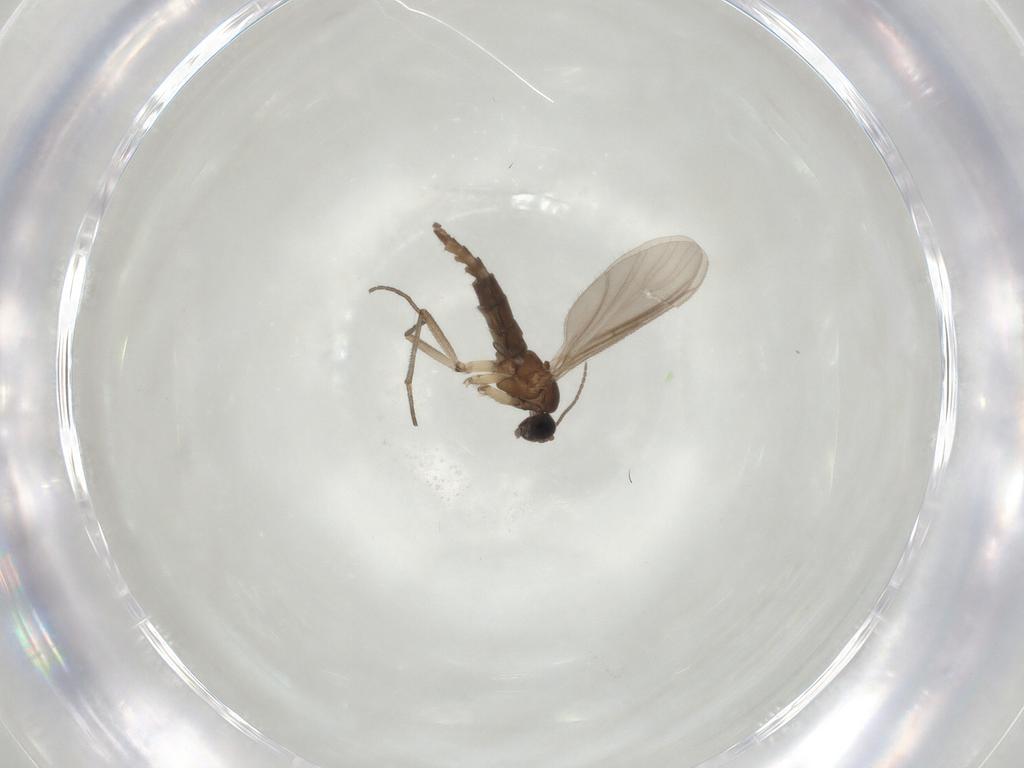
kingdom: Animalia
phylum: Arthropoda
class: Insecta
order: Diptera
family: Sciaridae
